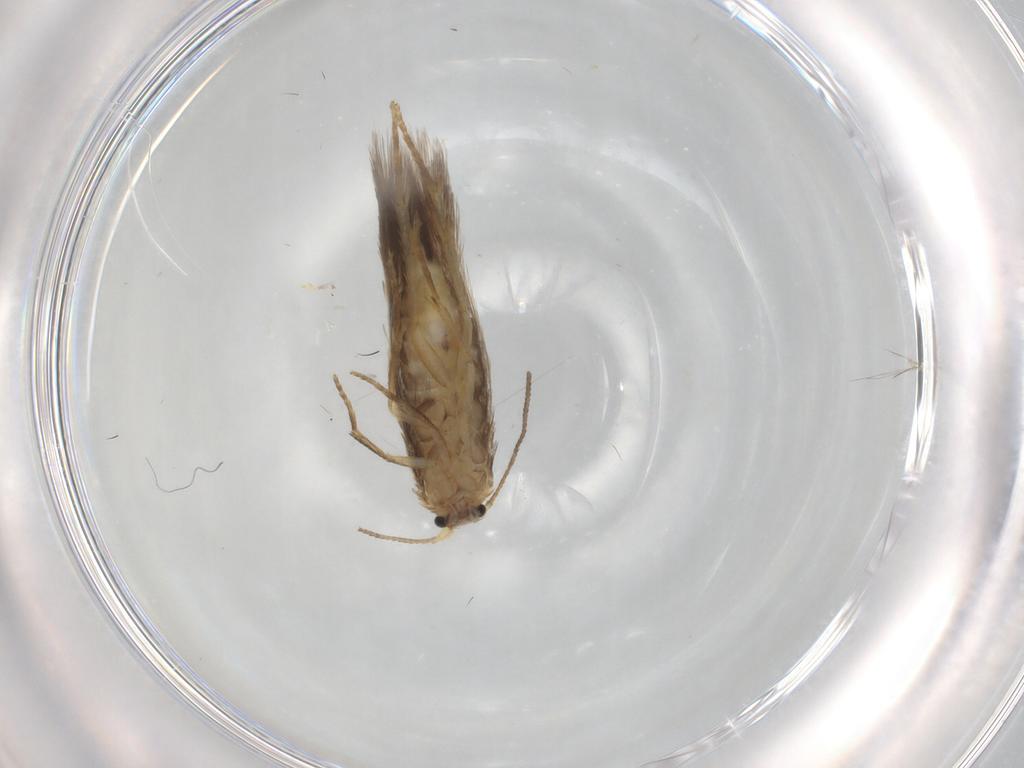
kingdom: Animalia
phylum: Arthropoda
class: Insecta
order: Lepidoptera
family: Nepticulidae
